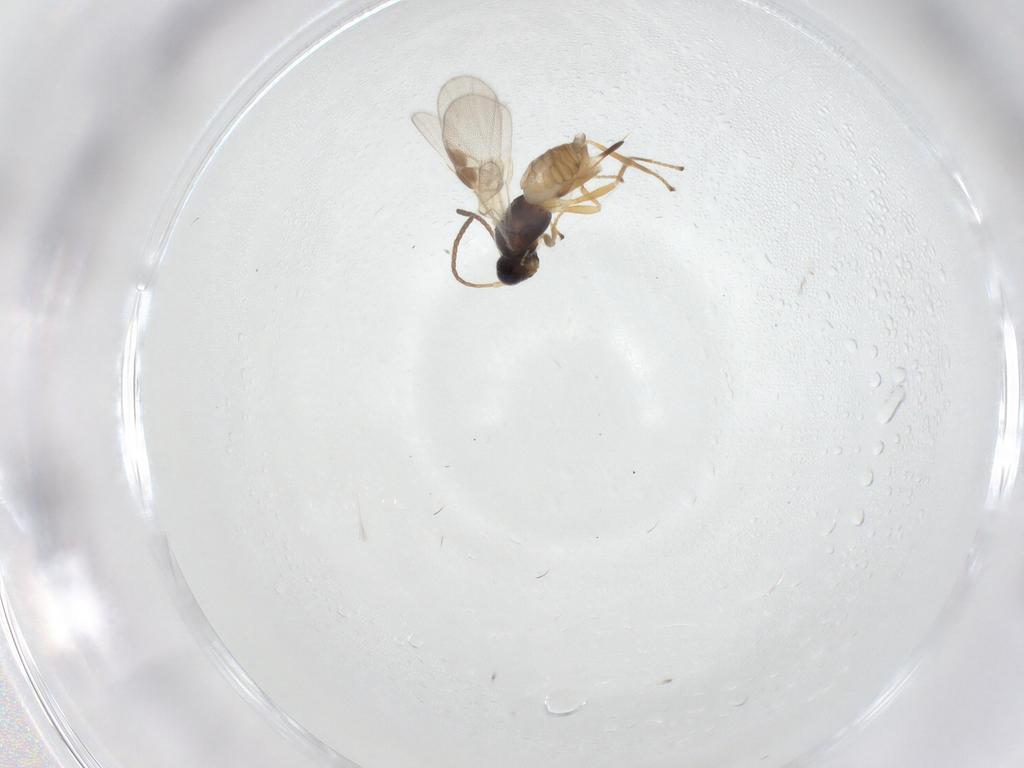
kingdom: Animalia
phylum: Arthropoda
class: Insecta
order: Hymenoptera
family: Braconidae
